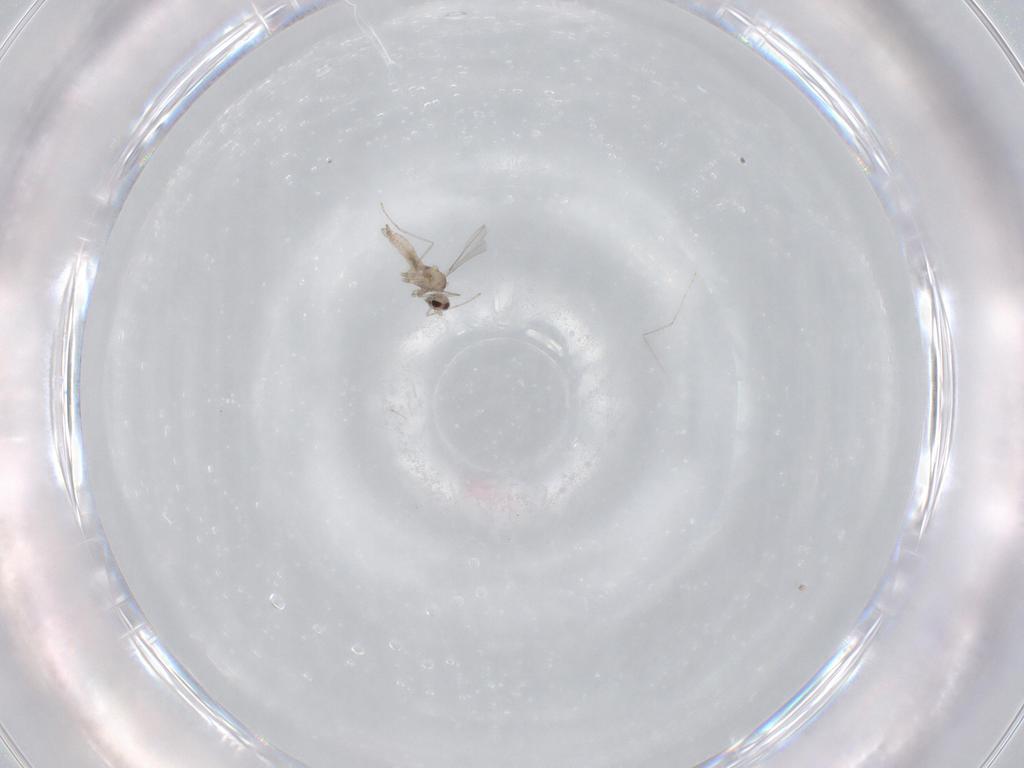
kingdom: Animalia
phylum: Arthropoda
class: Insecta
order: Diptera
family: Cecidomyiidae
